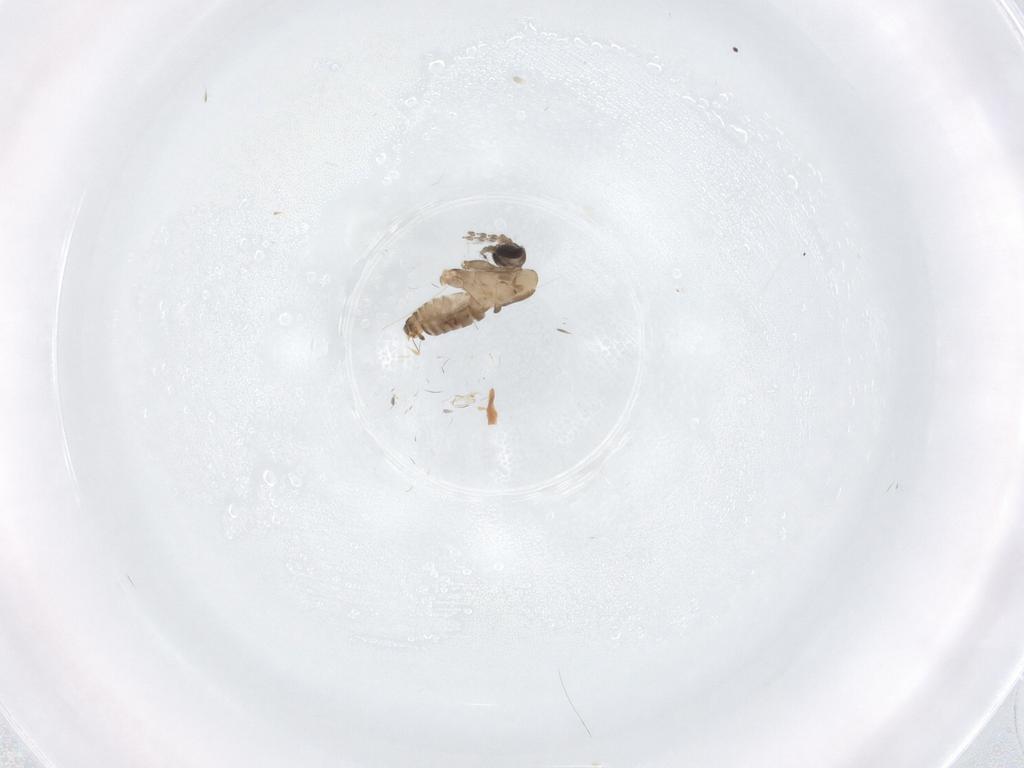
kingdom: Animalia
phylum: Arthropoda
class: Insecta
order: Diptera
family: Psychodidae
